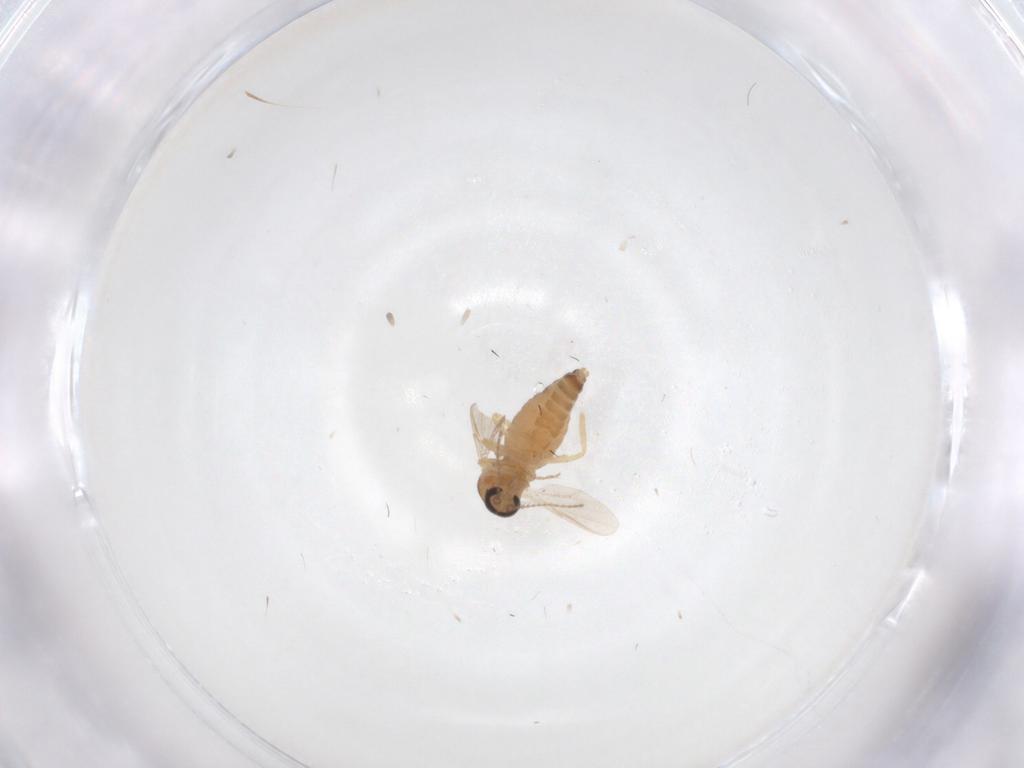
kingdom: Animalia
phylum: Arthropoda
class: Insecta
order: Diptera
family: Ceratopogonidae
